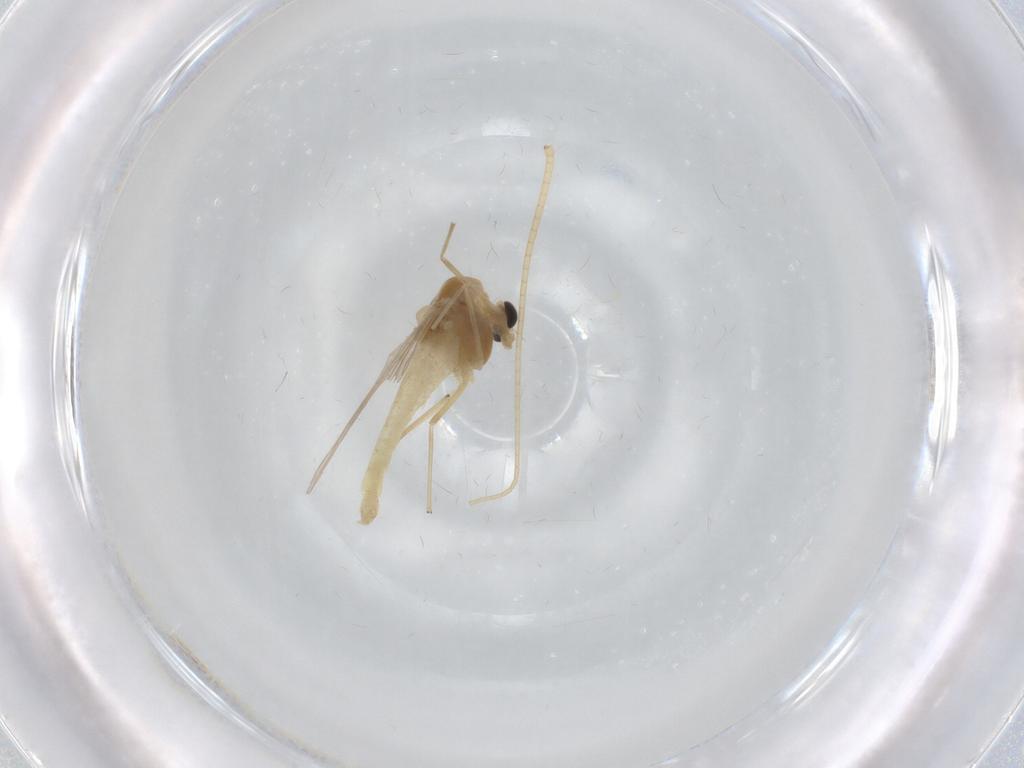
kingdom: Animalia
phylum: Arthropoda
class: Insecta
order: Diptera
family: Chironomidae
